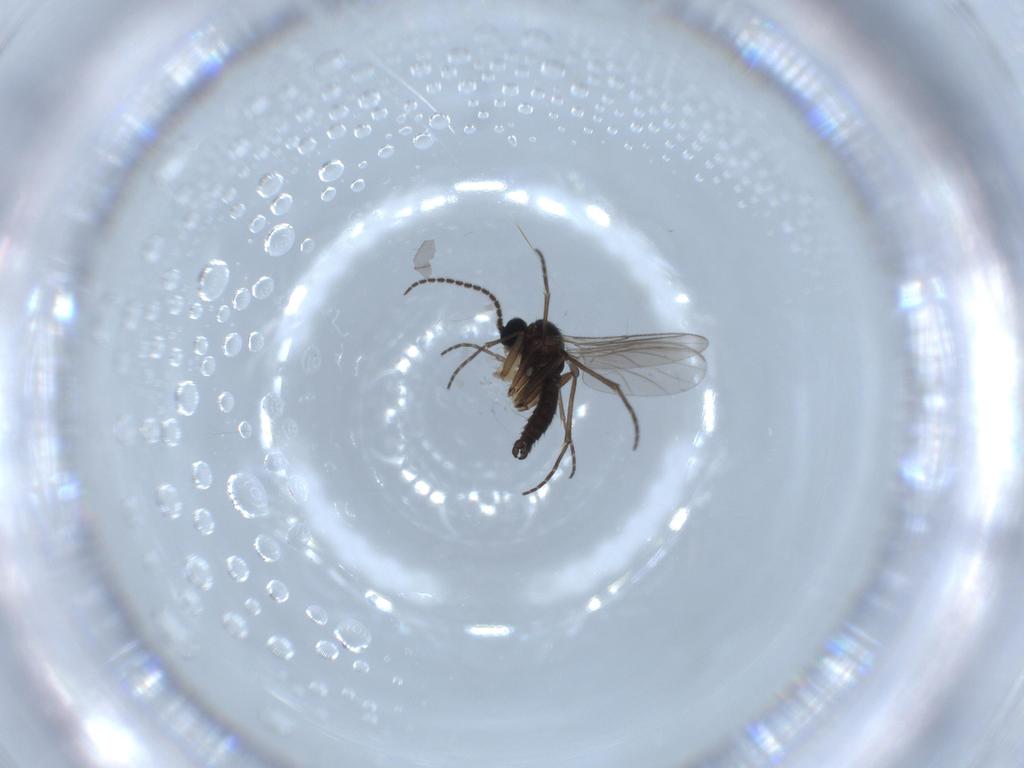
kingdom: Animalia
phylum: Arthropoda
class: Insecta
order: Diptera
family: Sciaridae
